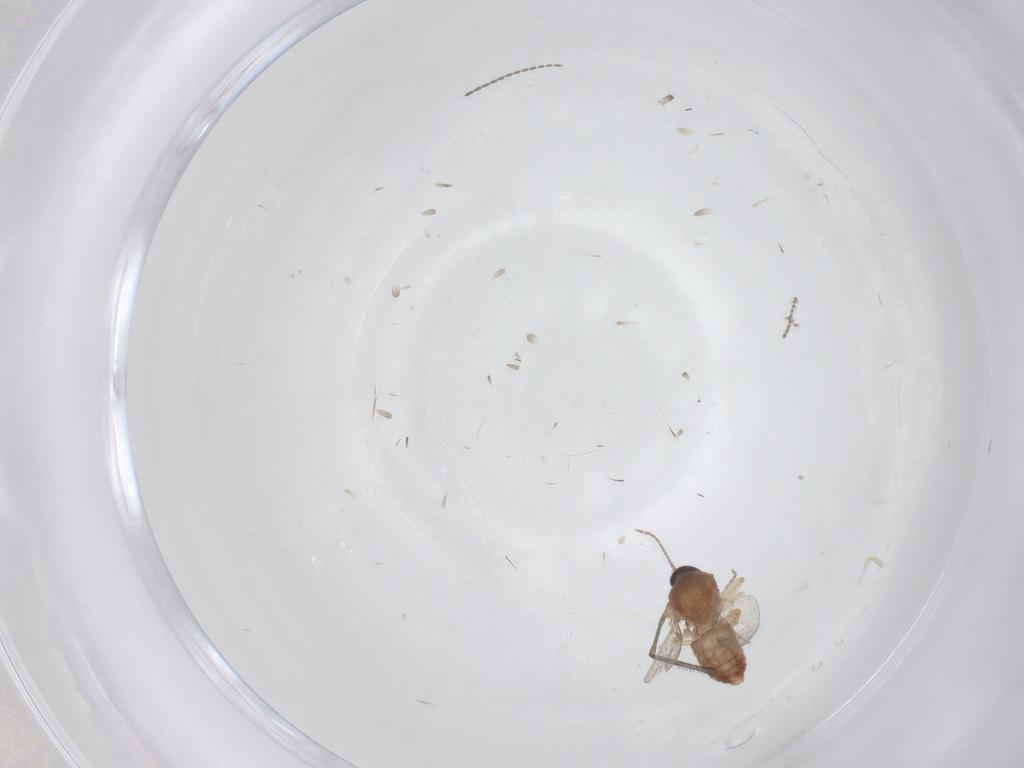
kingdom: Animalia
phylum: Arthropoda
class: Insecta
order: Diptera
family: Ceratopogonidae
